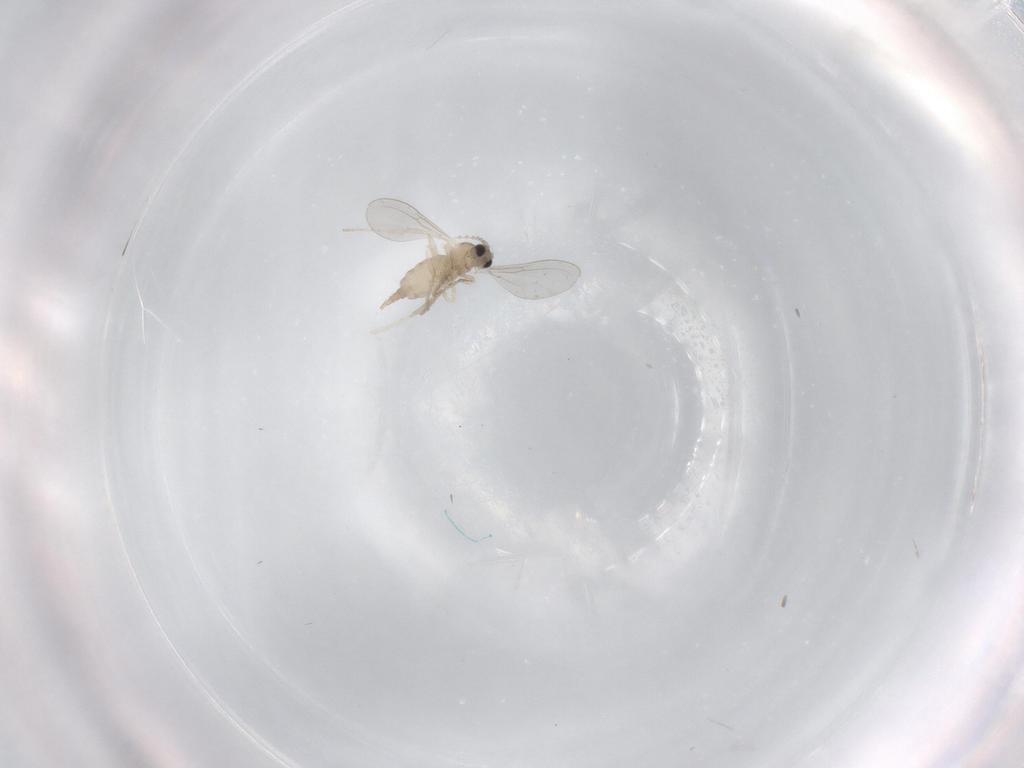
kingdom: Animalia
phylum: Arthropoda
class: Insecta
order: Diptera
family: Cecidomyiidae
